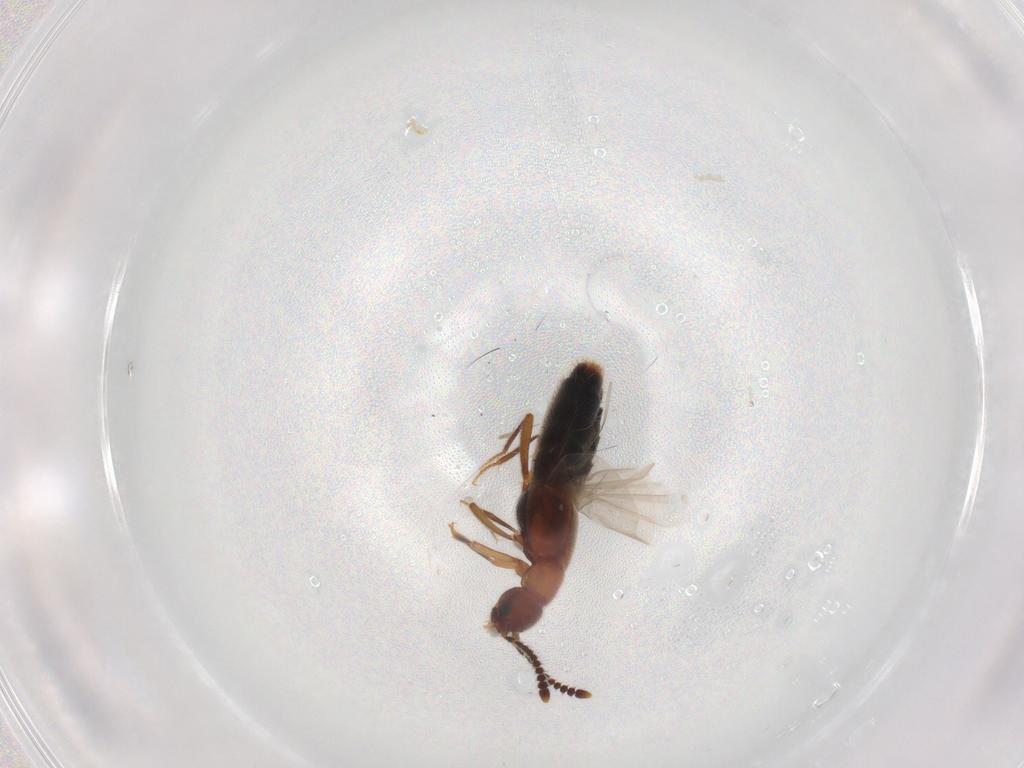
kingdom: Animalia
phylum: Arthropoda
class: Insecta
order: Coleoptera
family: Staphylinidae
